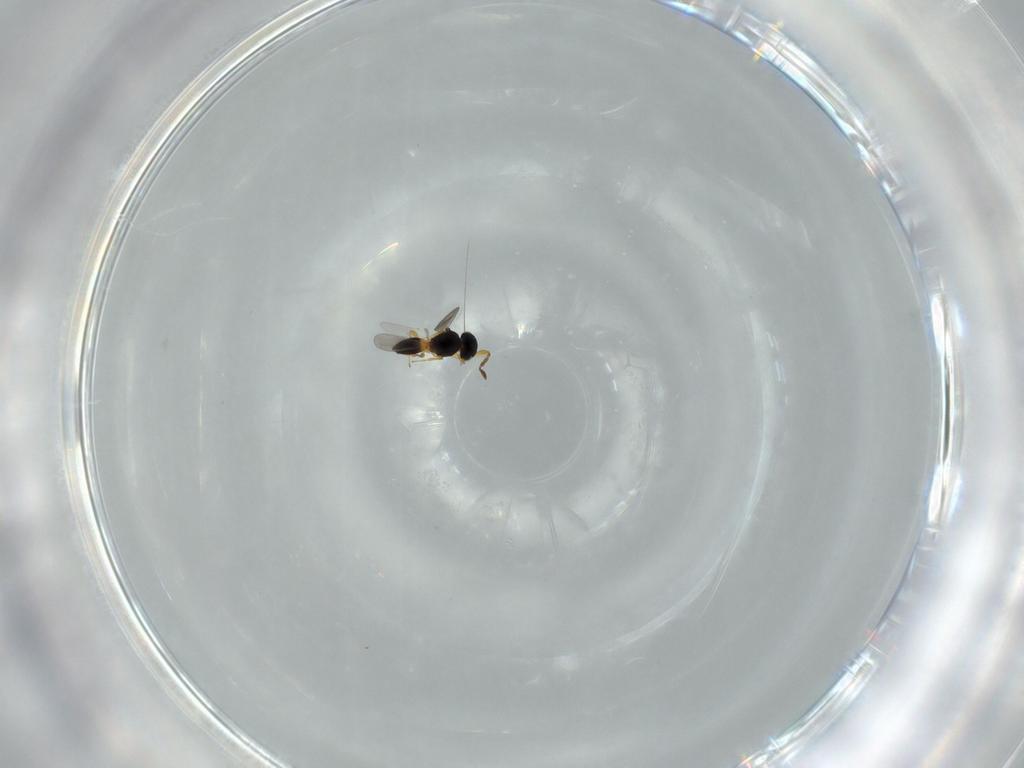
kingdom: Animalia
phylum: Arthropoda
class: Insecta
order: Hymenoptera
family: Platygastridae
